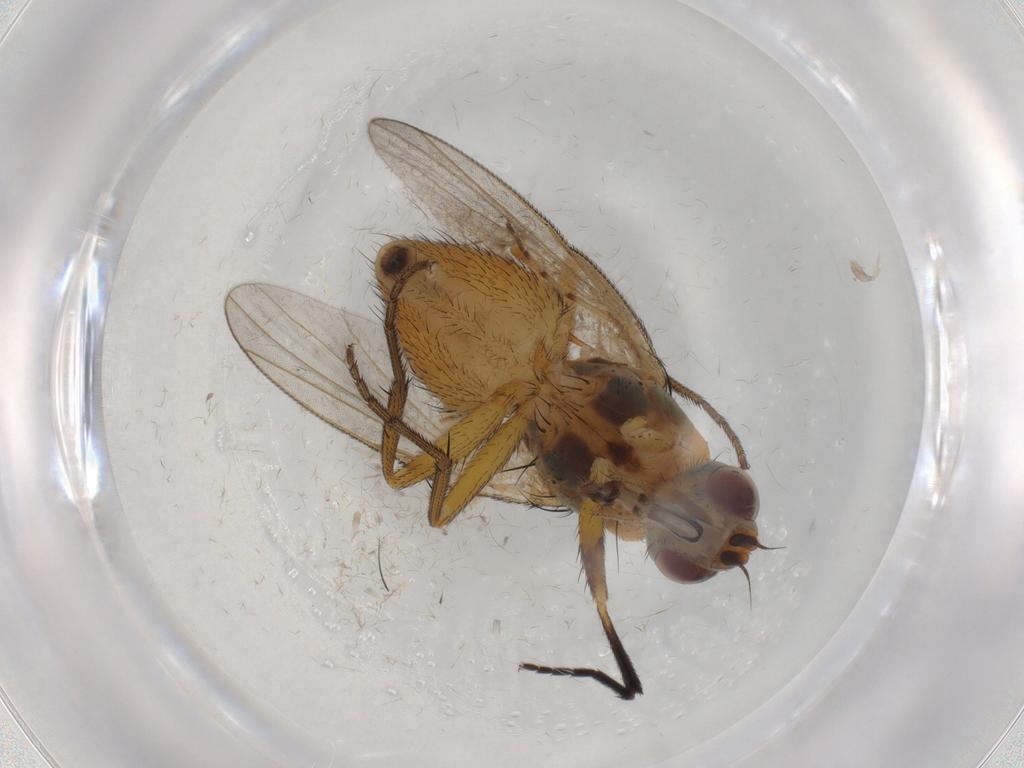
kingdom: Animalia
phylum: Arthropoda
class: Insecta
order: Diptera
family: Muscidae
